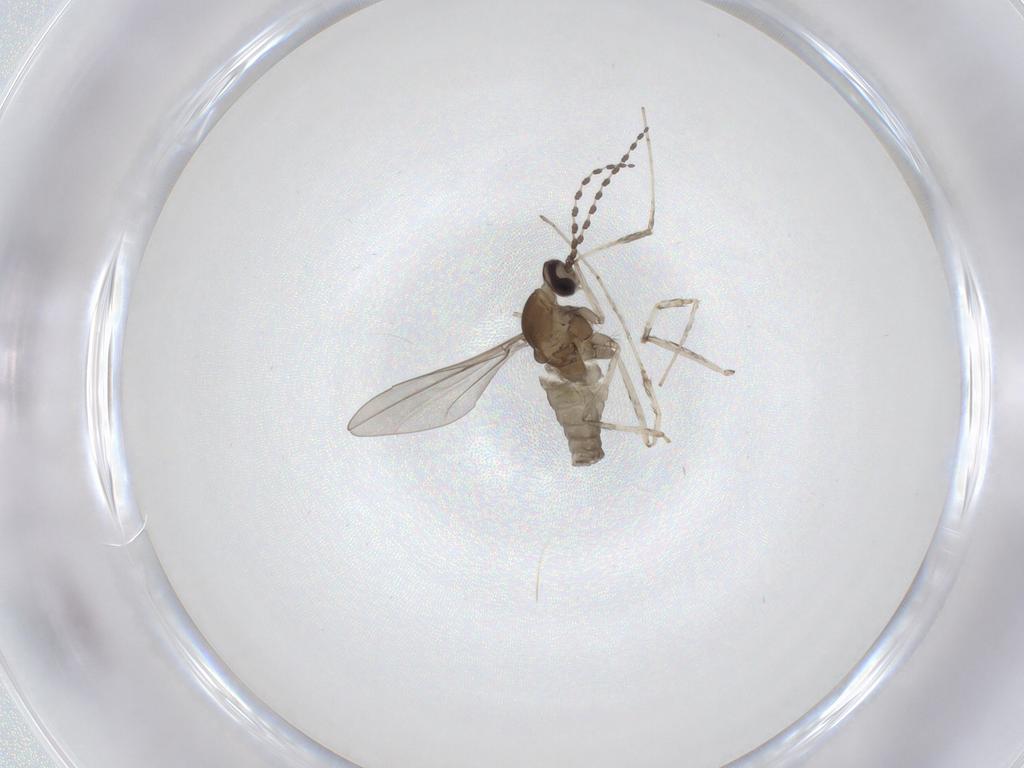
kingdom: Animalia
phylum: Arthropoda
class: Insecta
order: Diptera
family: Cecidomyiidae
